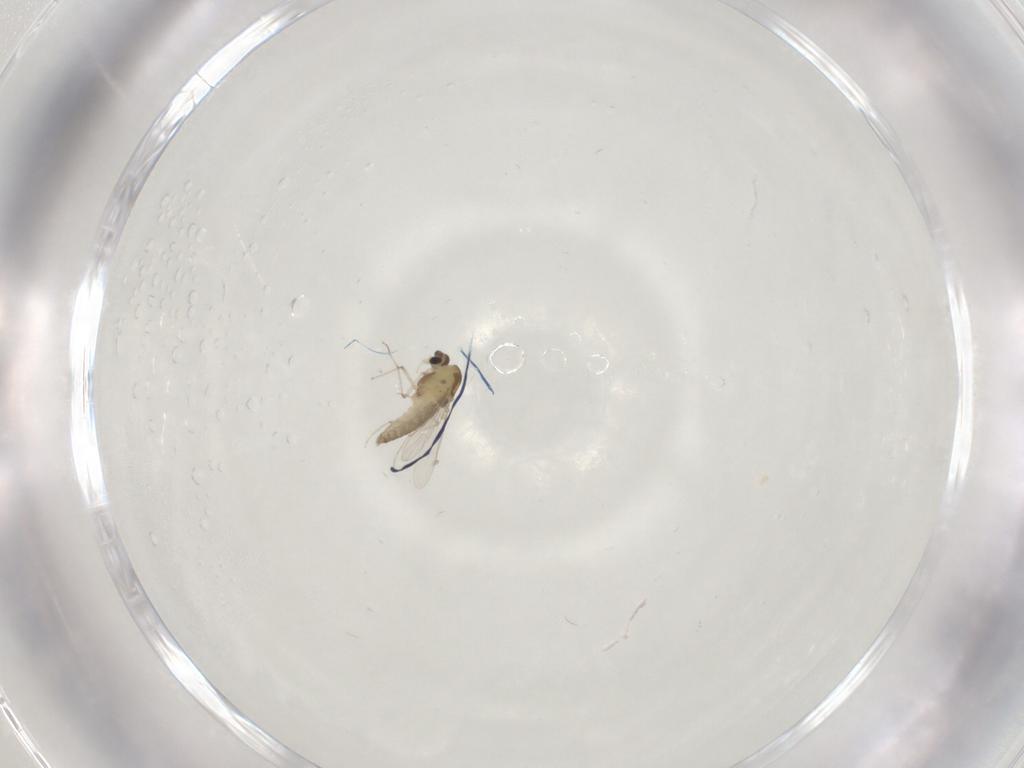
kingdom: Animalia
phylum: Arthropoda
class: Insecta
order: Diptera
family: Chironomidae
